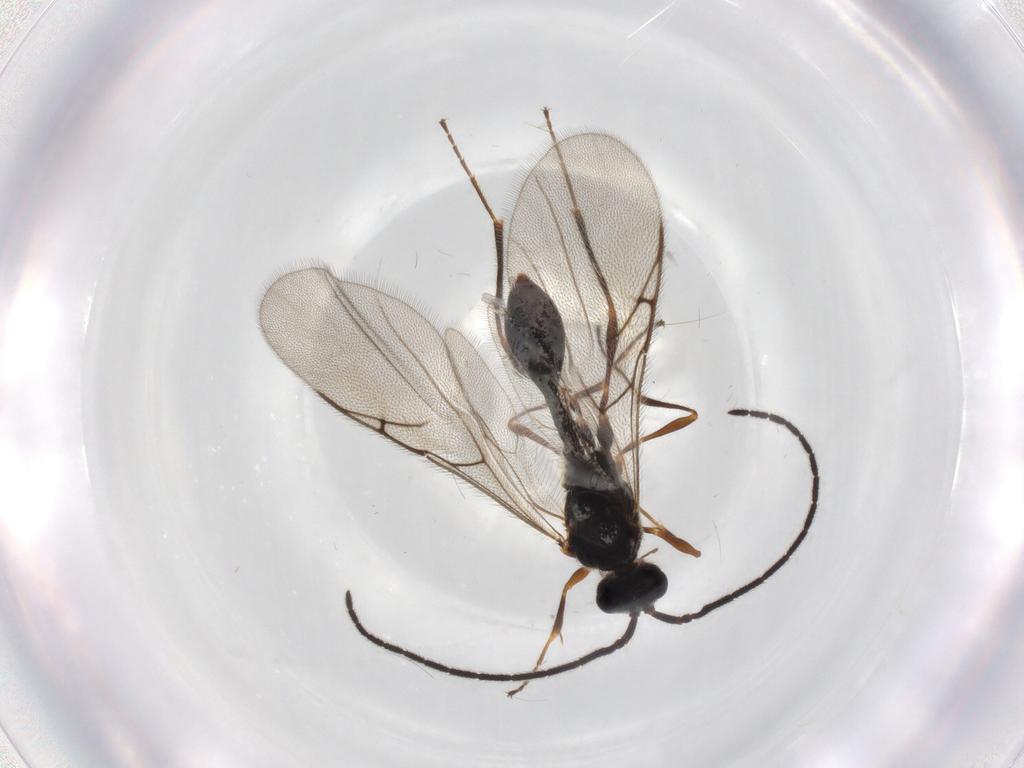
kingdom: Animalia
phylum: Arthropoda
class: Insecta
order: Hymenoptera
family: Diapriidae
